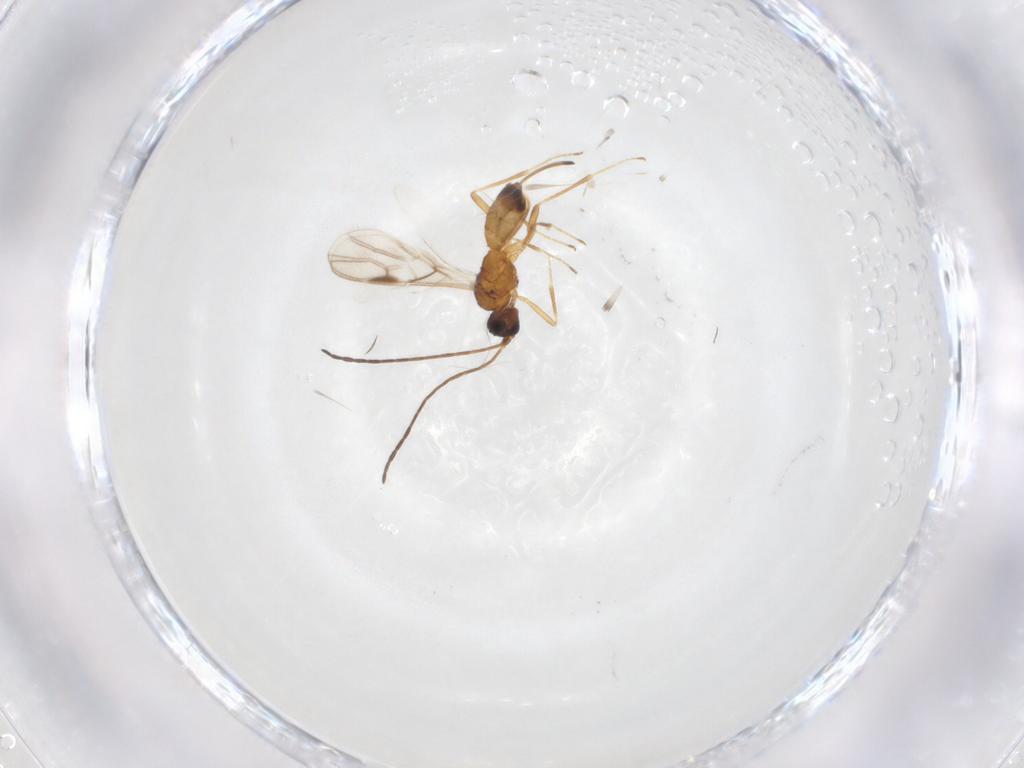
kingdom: Animalia
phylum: Arthropoda
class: Insecta
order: Hymenoptera
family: Braconidae
